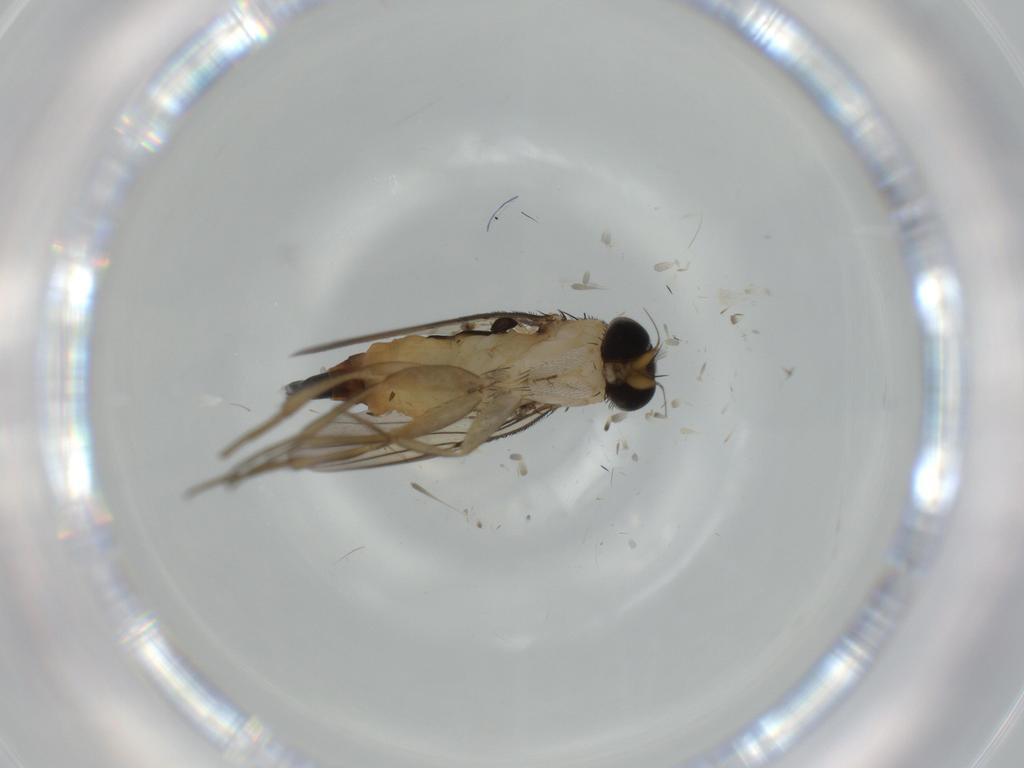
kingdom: Animalia
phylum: Arthropoda
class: Insecta
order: Diptera
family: Phoridae
